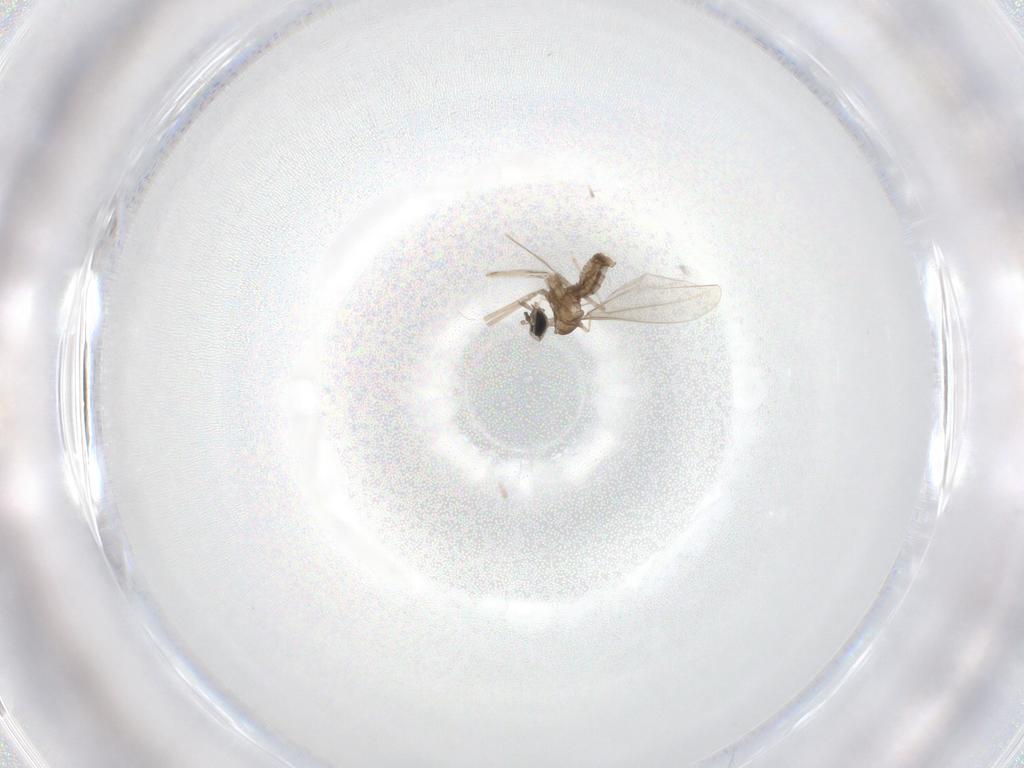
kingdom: Animalia
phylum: Arthropoda
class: Insecta
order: Diptera
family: Cecidomyiidae
